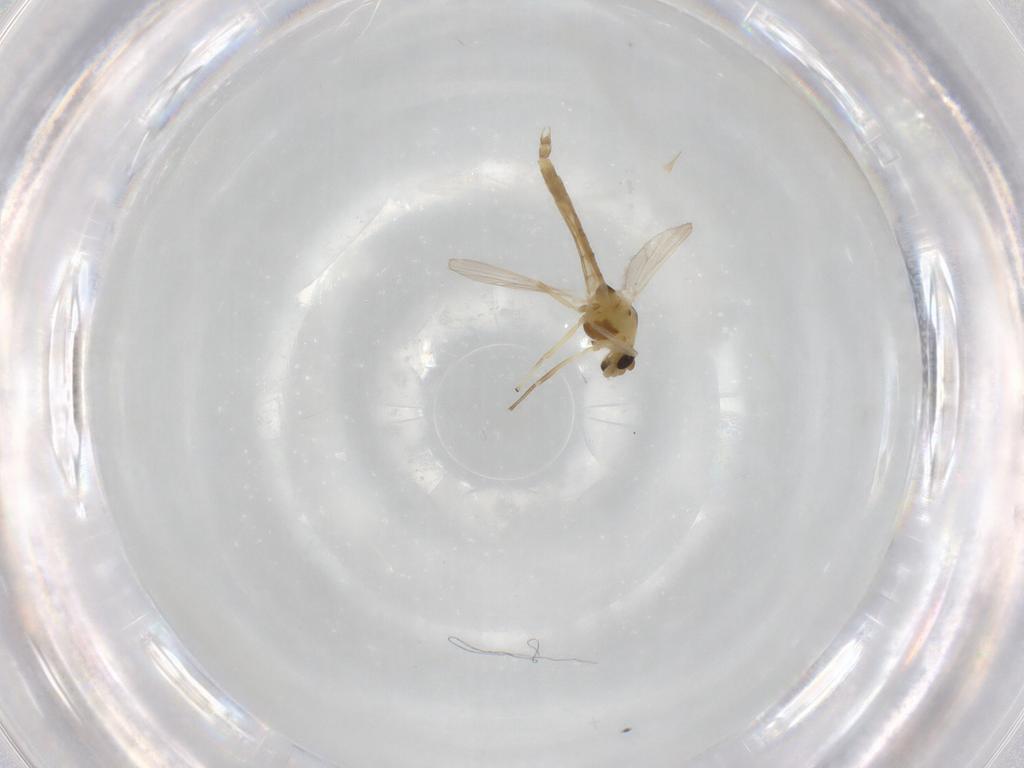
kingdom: Animalia
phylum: Arthropoda
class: Insecta
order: Diptera
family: Chironomidae
